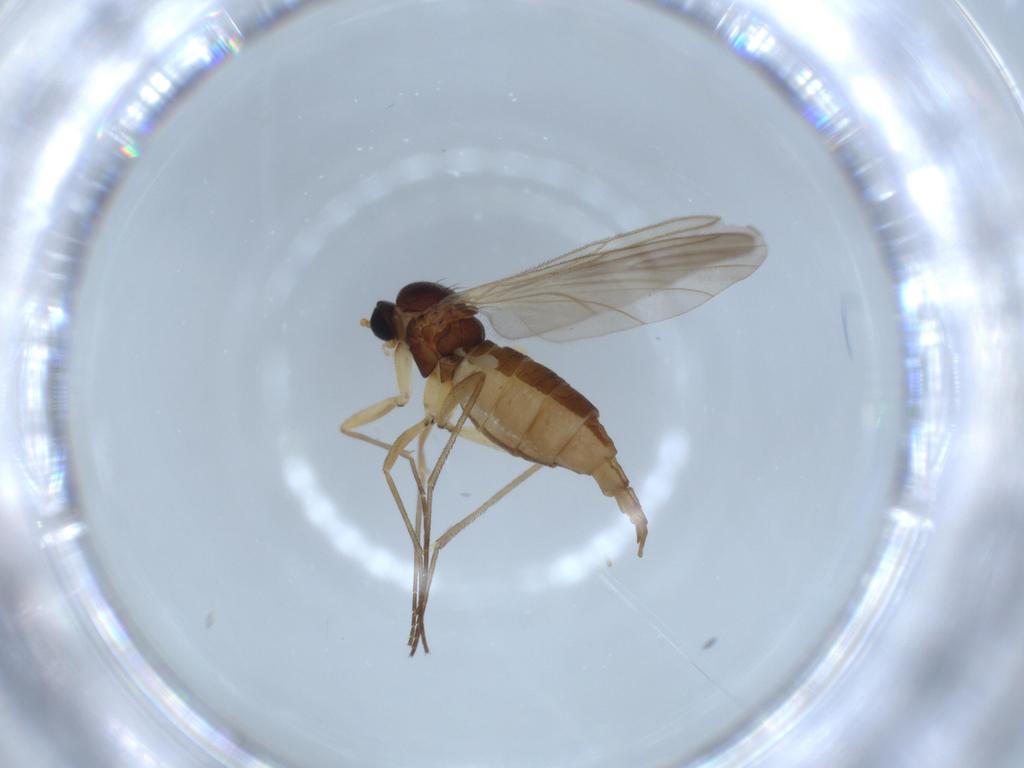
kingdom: Animalia
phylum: Arthropoda
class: Insecta
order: Diptera
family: Sciaridae
